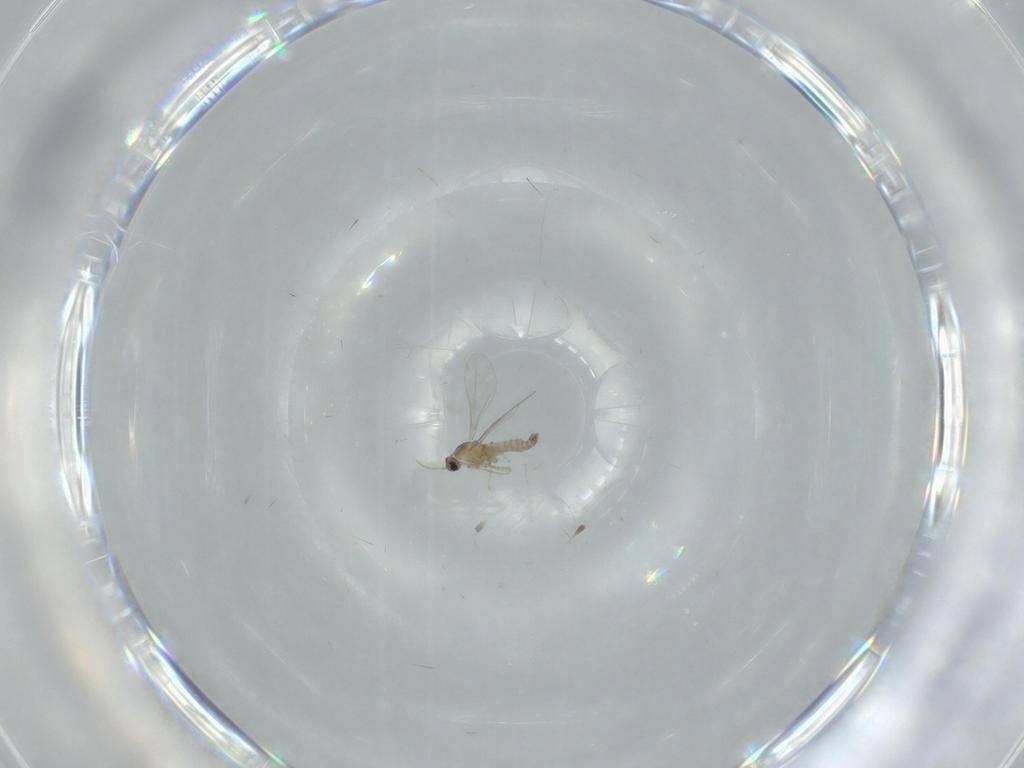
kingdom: Animalia
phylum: Arthropoda
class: Insecta
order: Diptera
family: Cecidomyiidae
